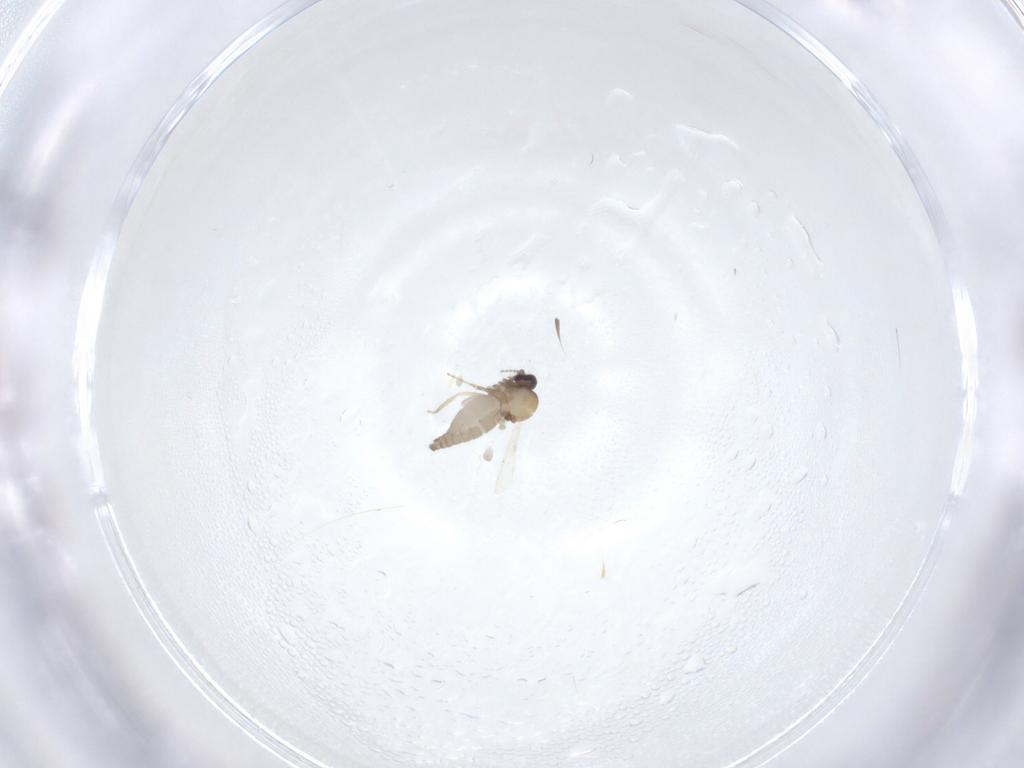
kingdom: Animalia
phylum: Arthropoda
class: Insecta
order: Diptera
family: Ceratopogonidae
